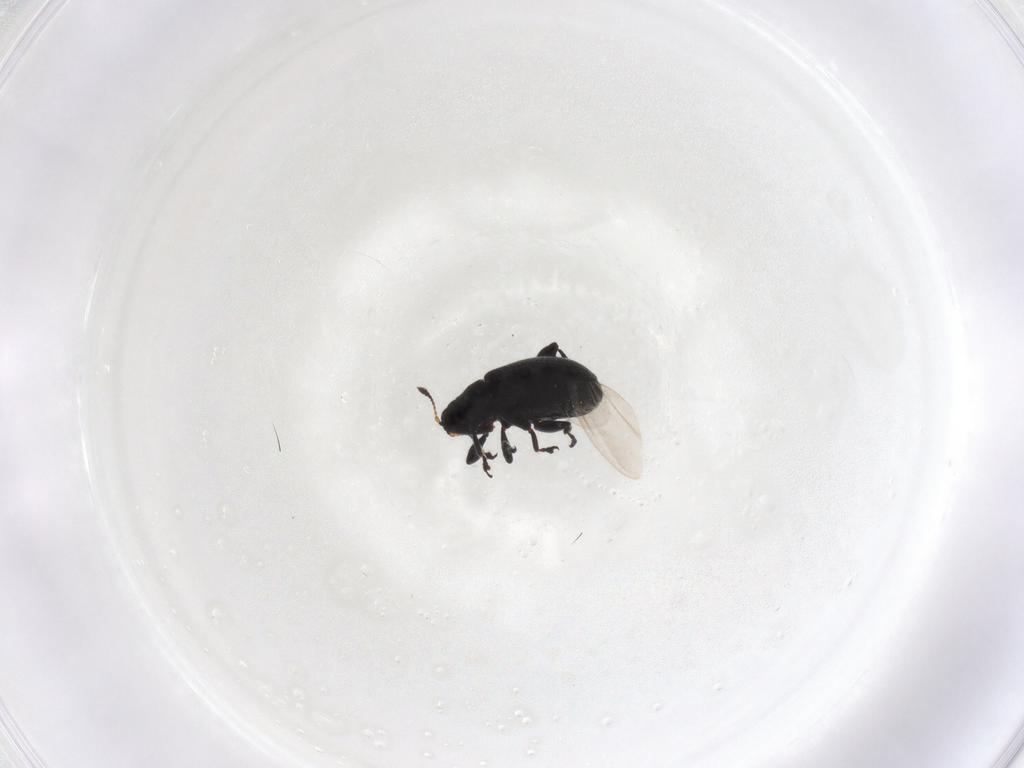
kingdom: Animalia
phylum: Arthropoda
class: Insecta
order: Coleoptera
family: Curculionidae
